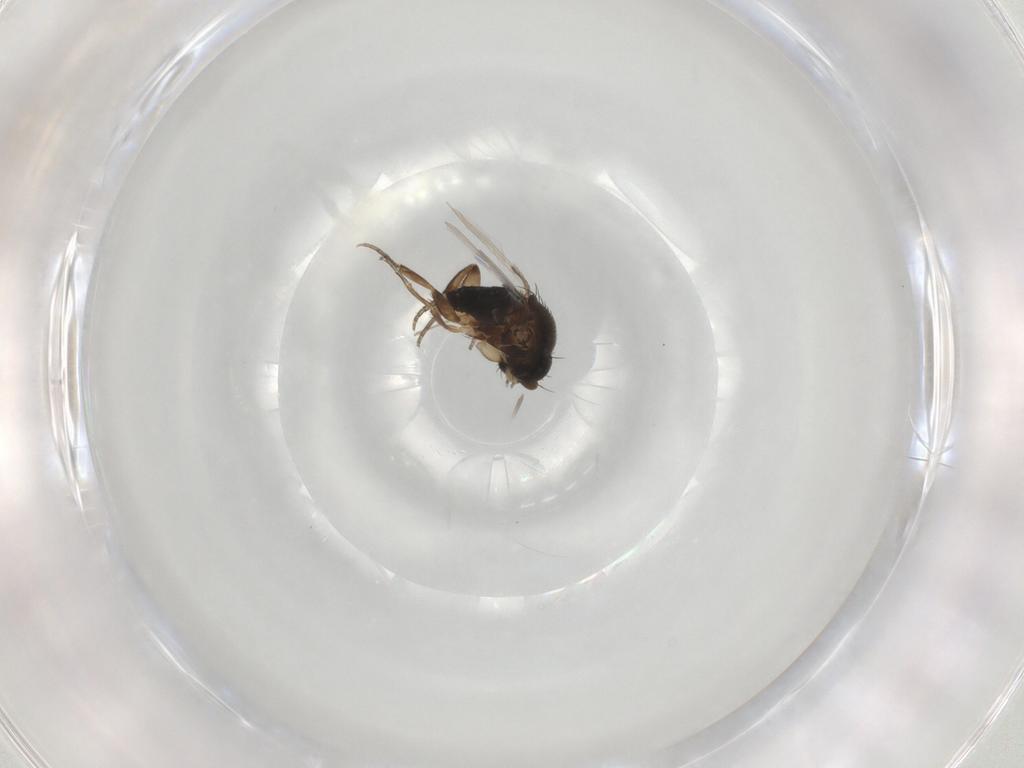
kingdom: Animalia
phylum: Arthropoda
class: Insecta
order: Diptera
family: Phoridae
